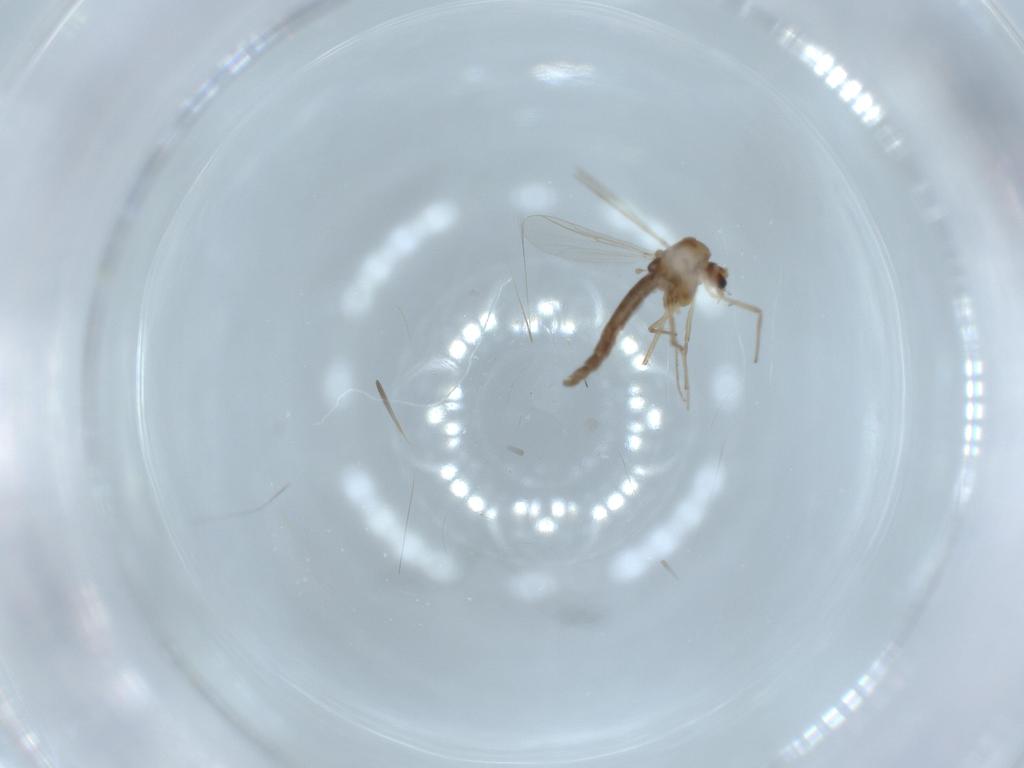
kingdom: Animalia
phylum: Arthropoda
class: Insecta
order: Diptera
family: Chironomidae
